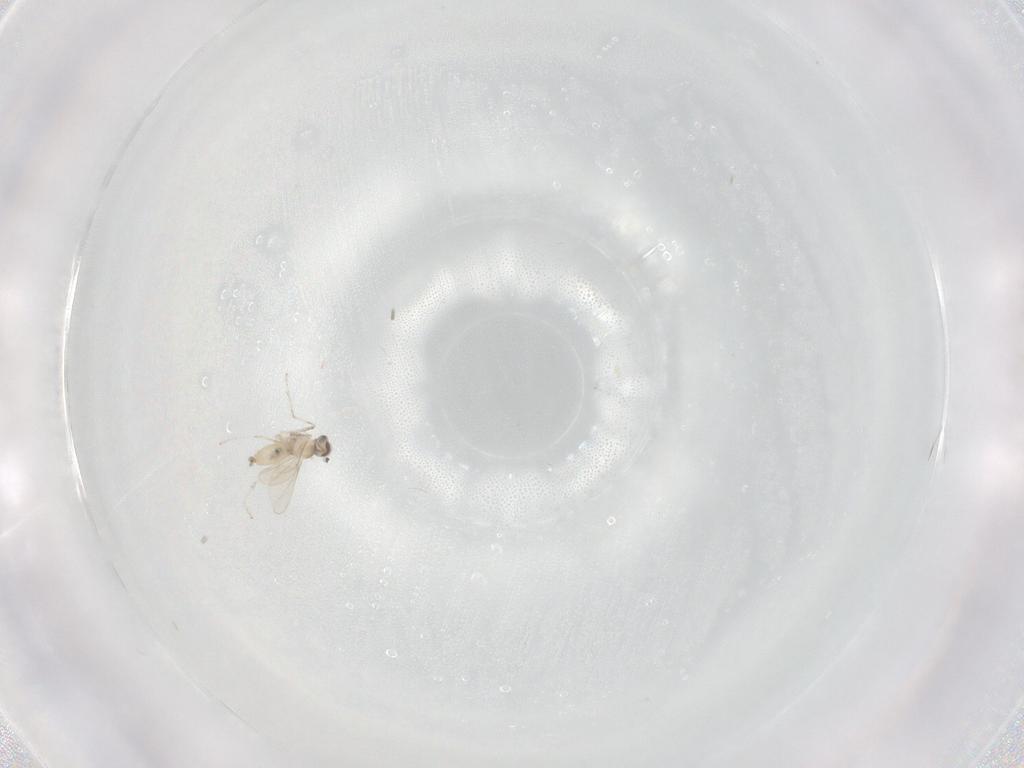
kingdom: Animalia
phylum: Arthropoda
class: Insecta
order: Diptera
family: Cecidomyiidae
